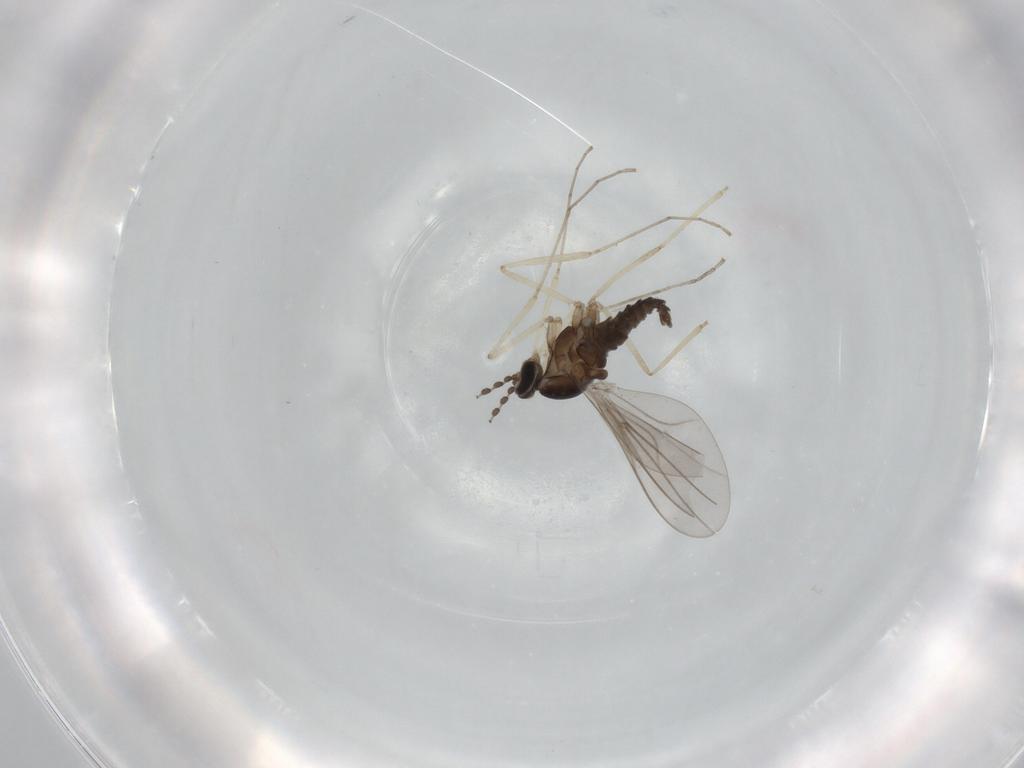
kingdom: Animalia
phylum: Arthropoda
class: Insecta
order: Diptera
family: Cecidomyiidae
